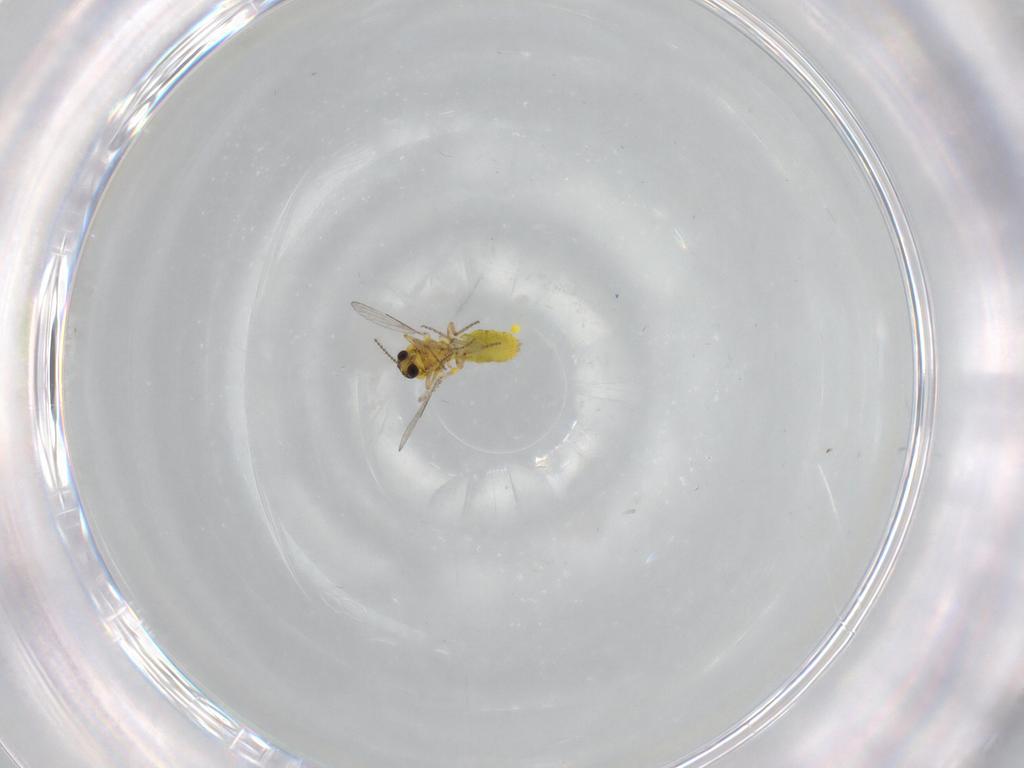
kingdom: Animalia
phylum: Arthropoda
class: Insecta
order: Diptera
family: Ceratopogonidae
